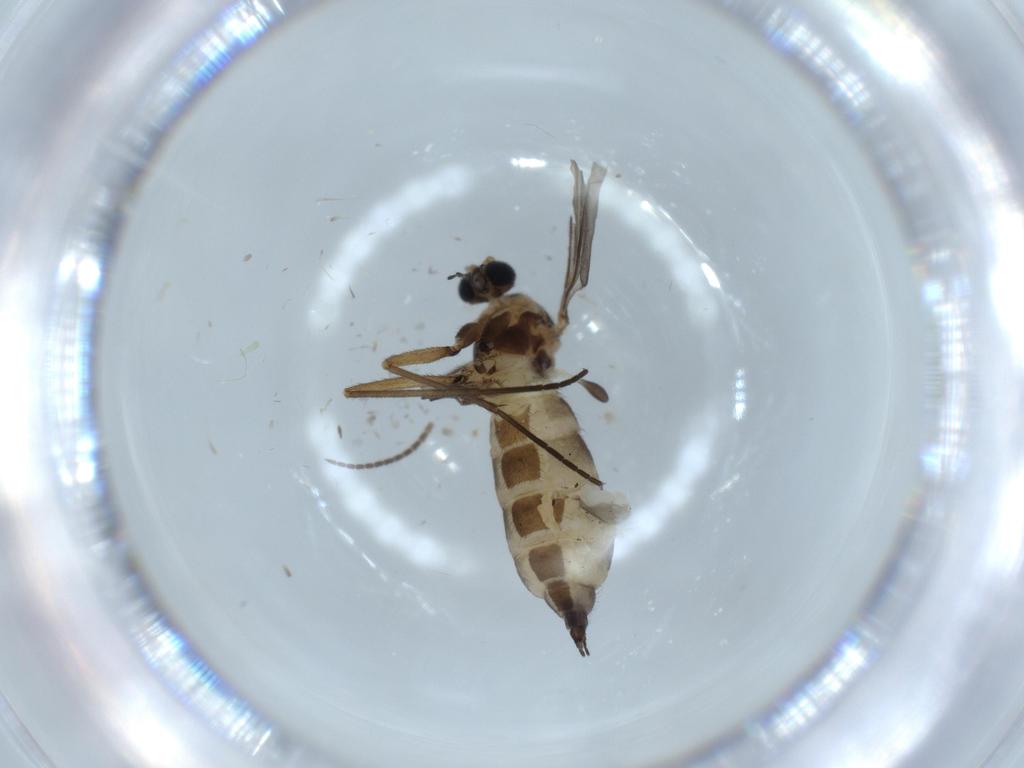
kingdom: Animalia
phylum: Arthropoda
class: Insecta
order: Diptera
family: Sciaridae
